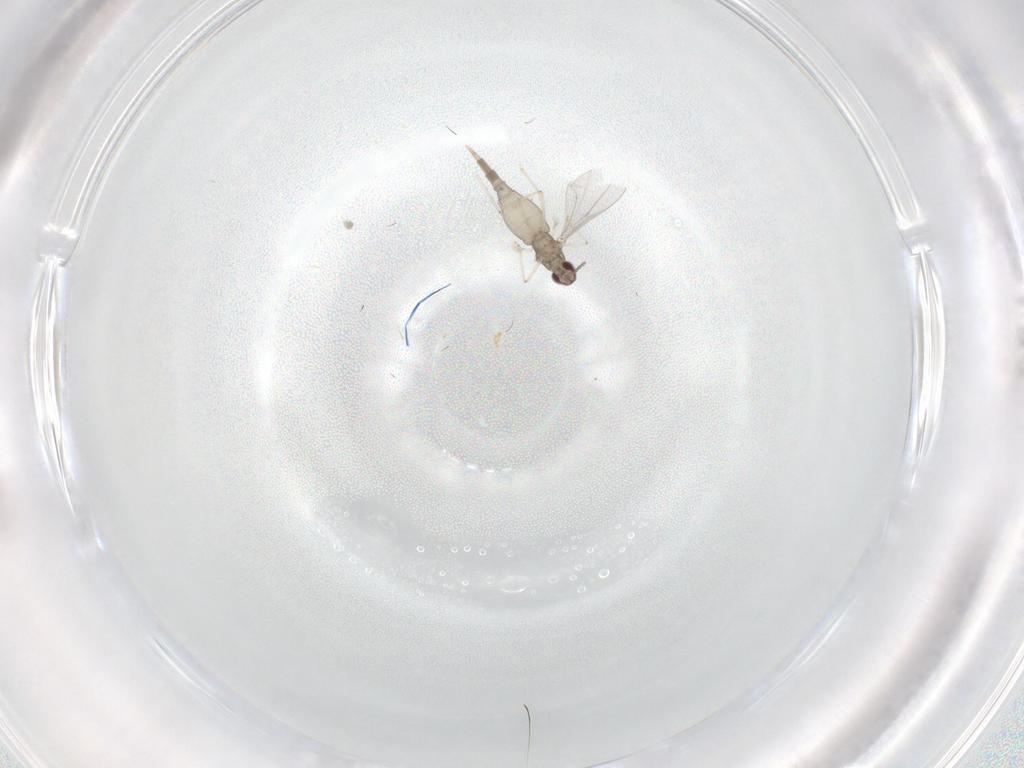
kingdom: Animalia
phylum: Arthropoda
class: Insecta
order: Diptera
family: Cecidomyiidae
